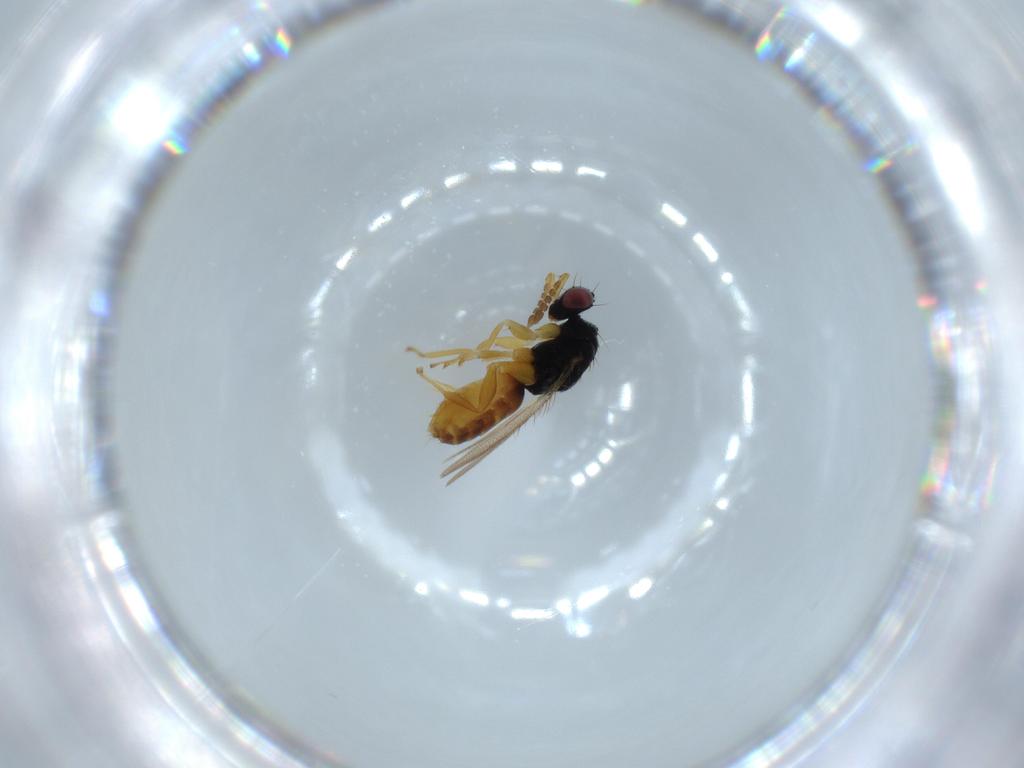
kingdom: Animalia
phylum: Arthropoda
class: Insecta
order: Hymenoptera
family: Eulophidae
